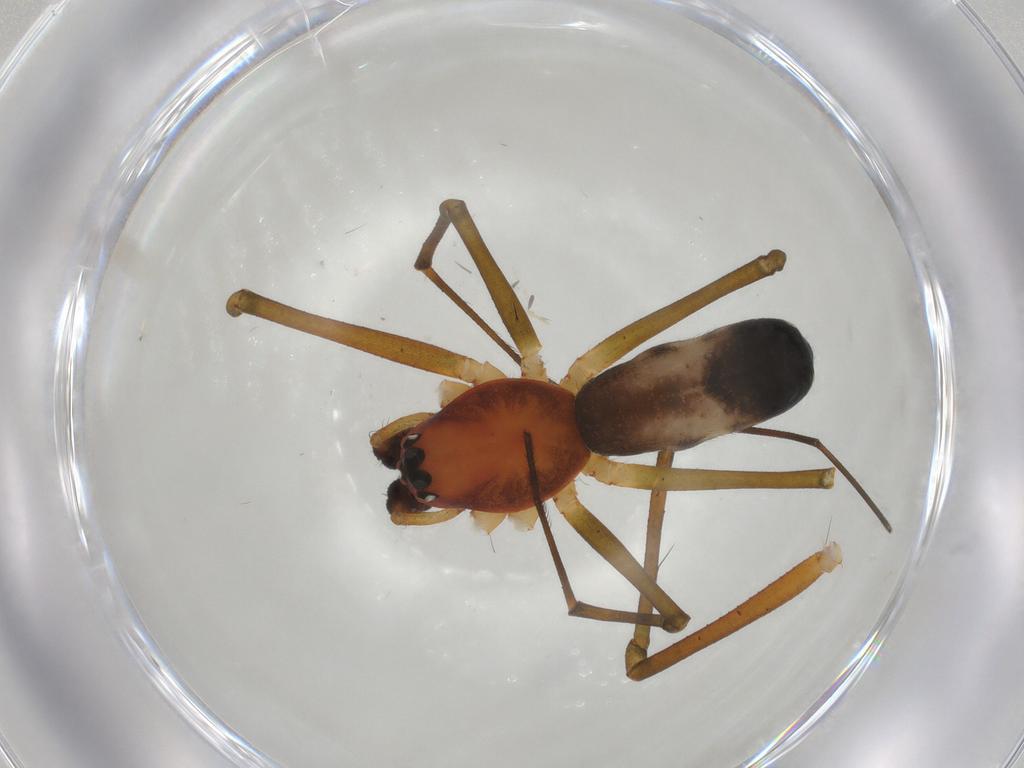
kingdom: Animalia
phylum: Arthropoda
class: Arachnida
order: Araneae
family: Linyphiidae
